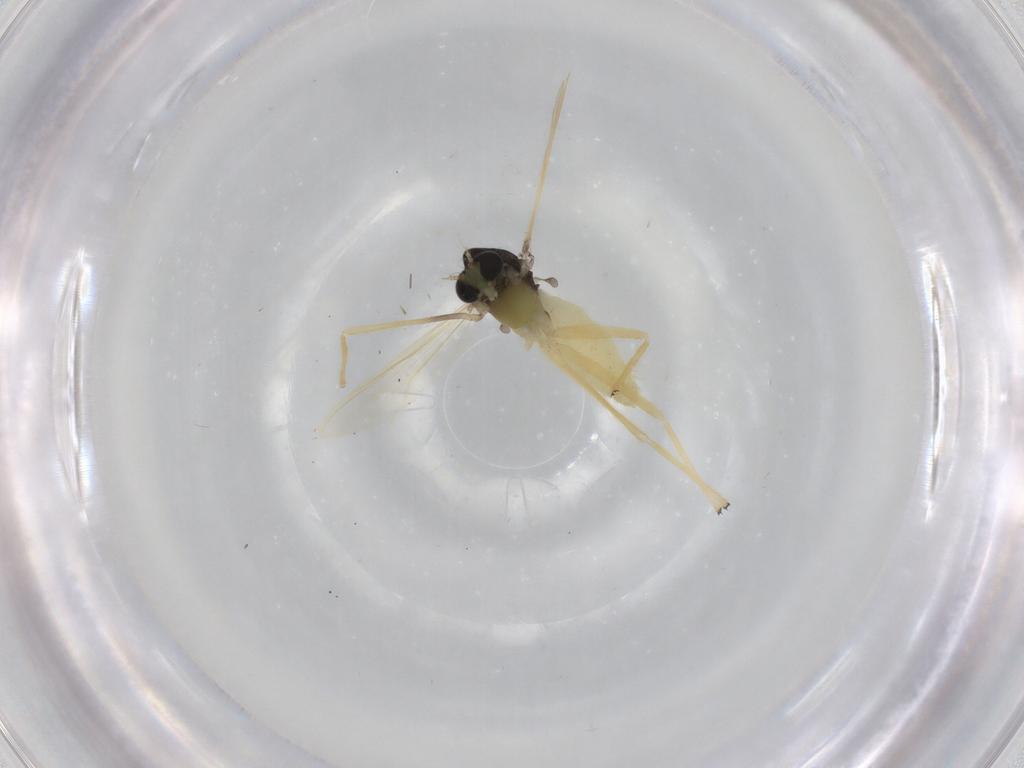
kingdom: Animalia
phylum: Arthropoda
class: Insecta
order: Diptera
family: Chironomidae
